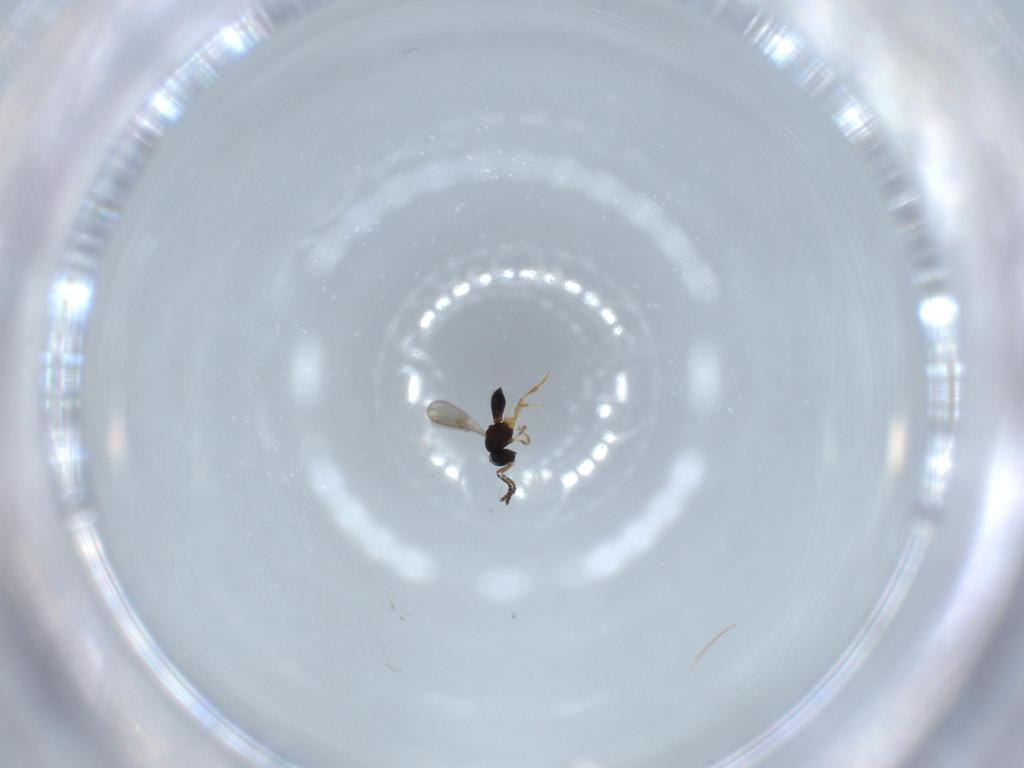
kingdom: Animalia
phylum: Arthropoda
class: Insecta
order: Hymenoptera
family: Scelionidae
